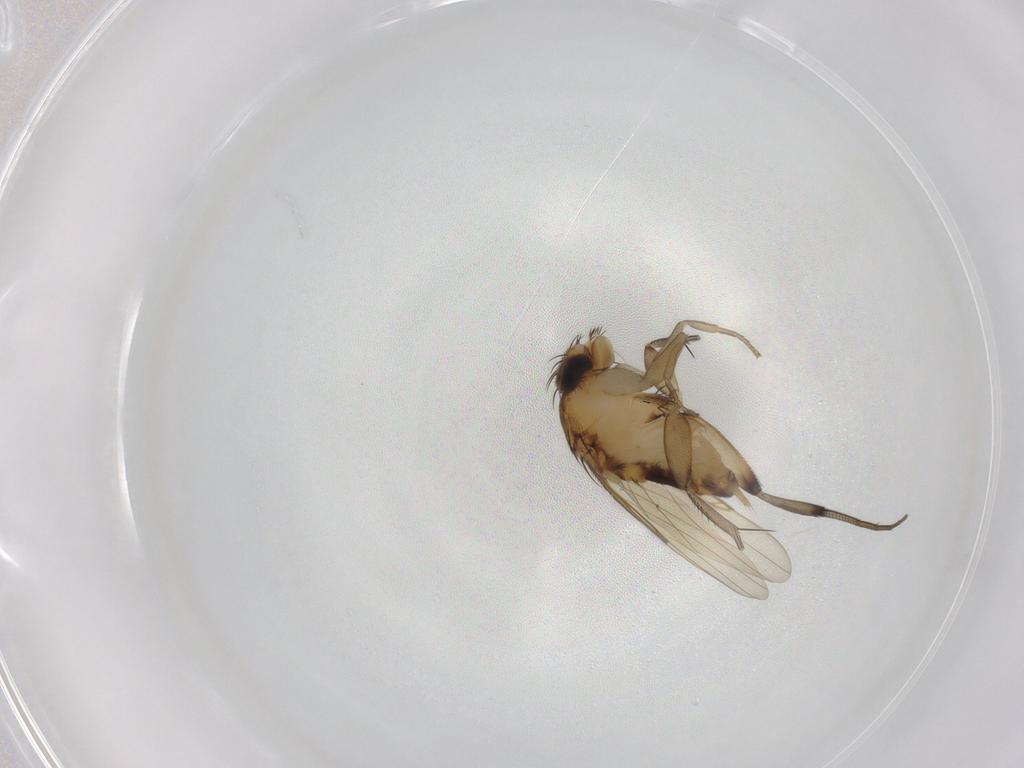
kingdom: Animalia
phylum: Arthropoda
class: Insecta
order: Diptera
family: Phoridae
